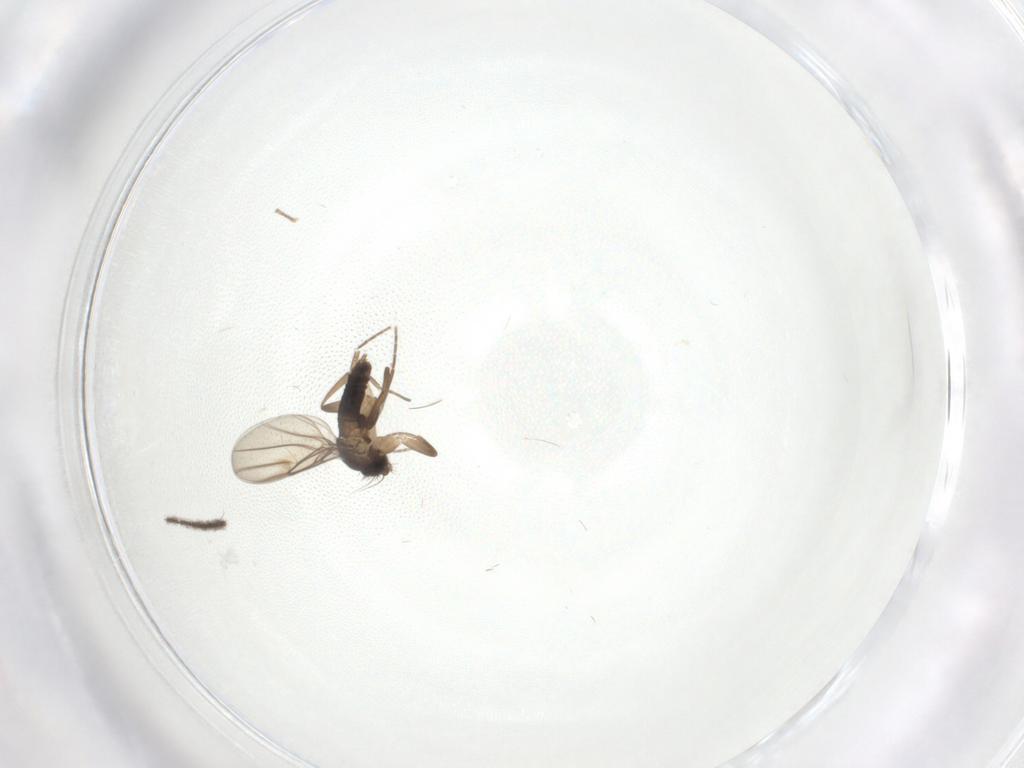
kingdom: Animalia
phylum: Arthropoda
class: Insecta
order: Diptera
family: Phoridae
